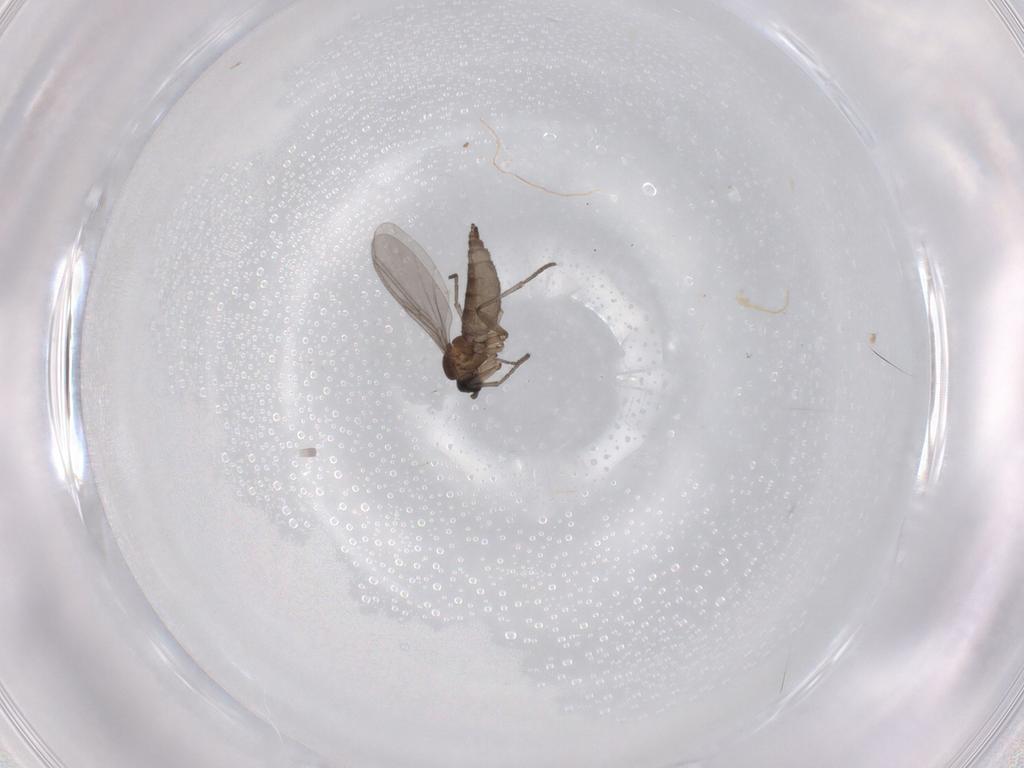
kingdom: Animalia
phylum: Arthropoda
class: Insecta
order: Diptera
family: Sciaridae
